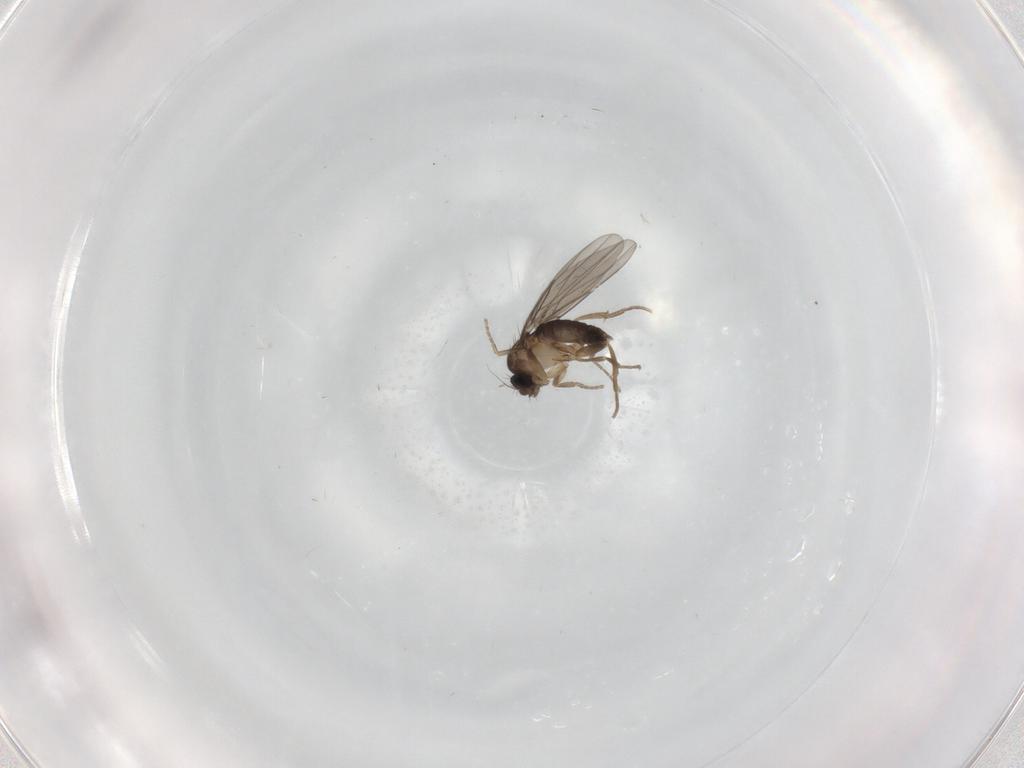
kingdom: Animalia
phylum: Arthropoda
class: Insecta
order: Diptera
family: Phoridae
